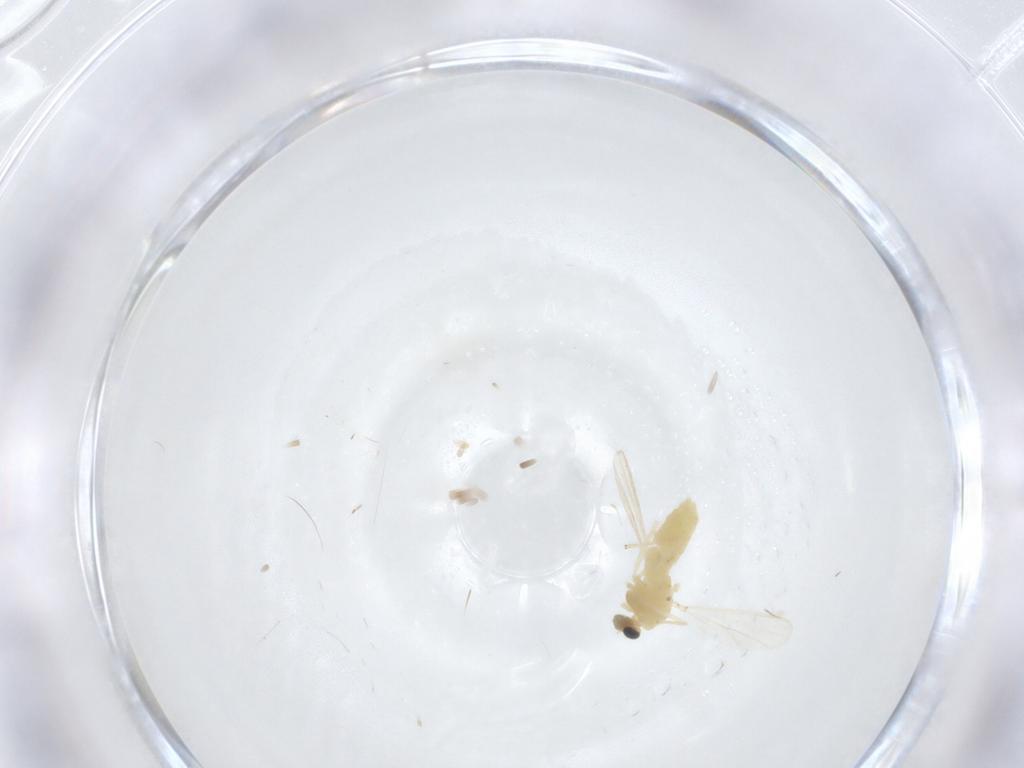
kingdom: Animalia
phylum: Arthropoda
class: Insecta
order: Diptera
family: Chironomidae
